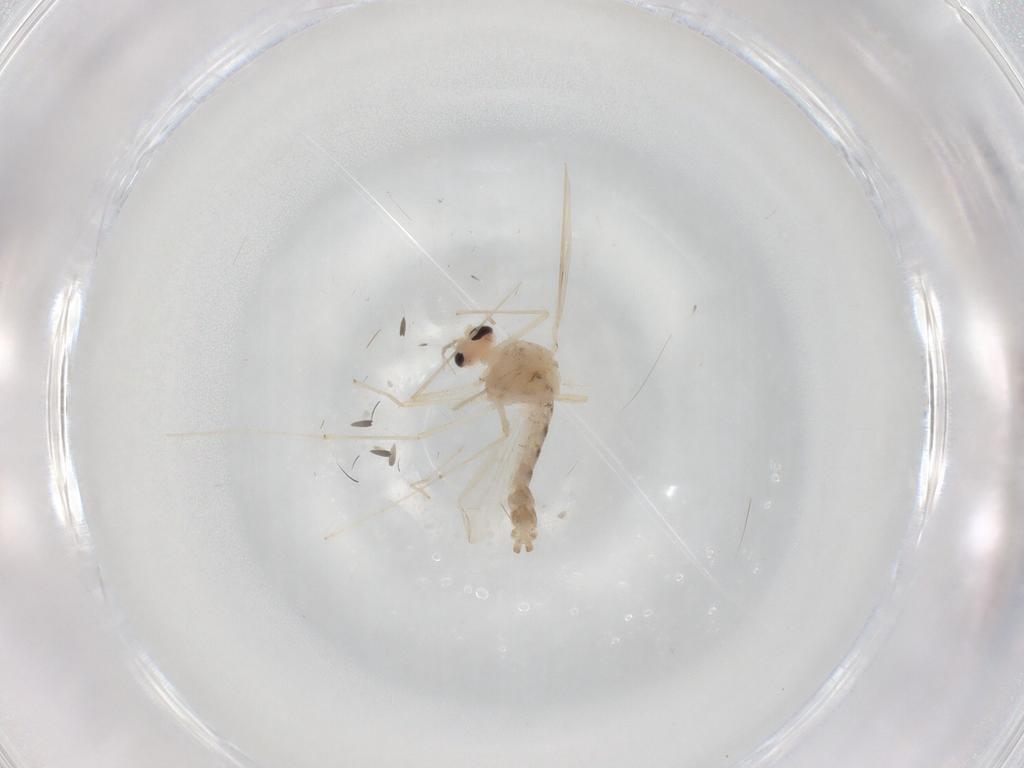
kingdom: Animalia
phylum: Arthropoda
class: Insecta
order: Diptera
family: Chironomidae
